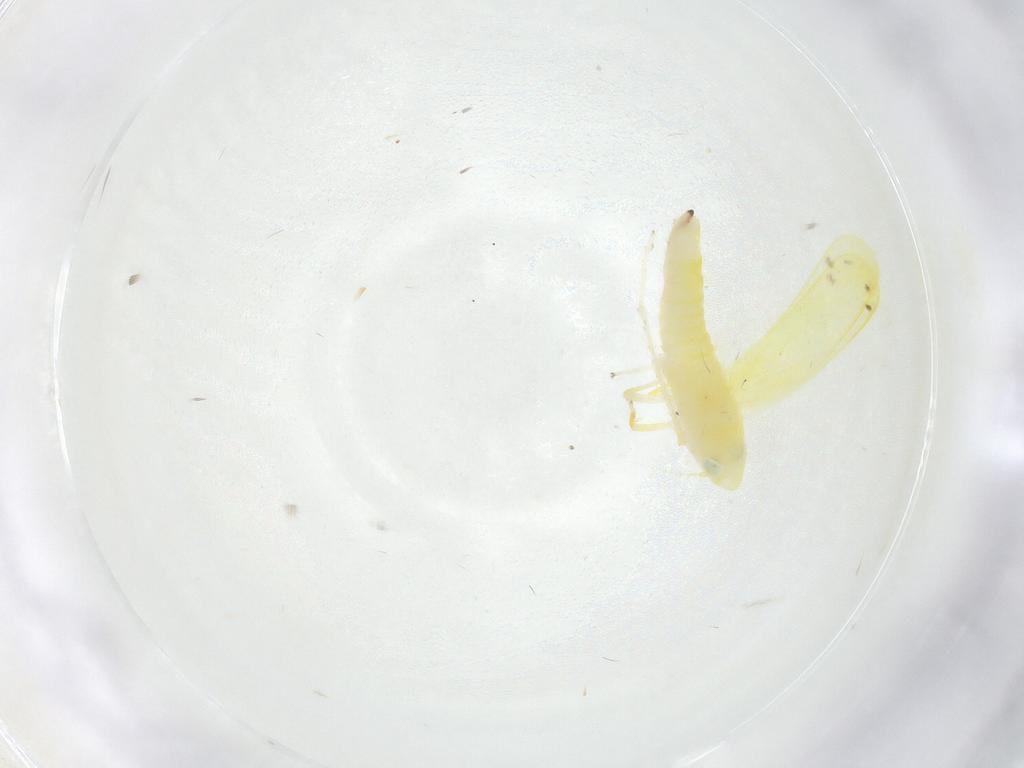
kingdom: Animalia
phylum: Arthropoda
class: Insecta
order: Hemiptera
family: Cicadellidae
